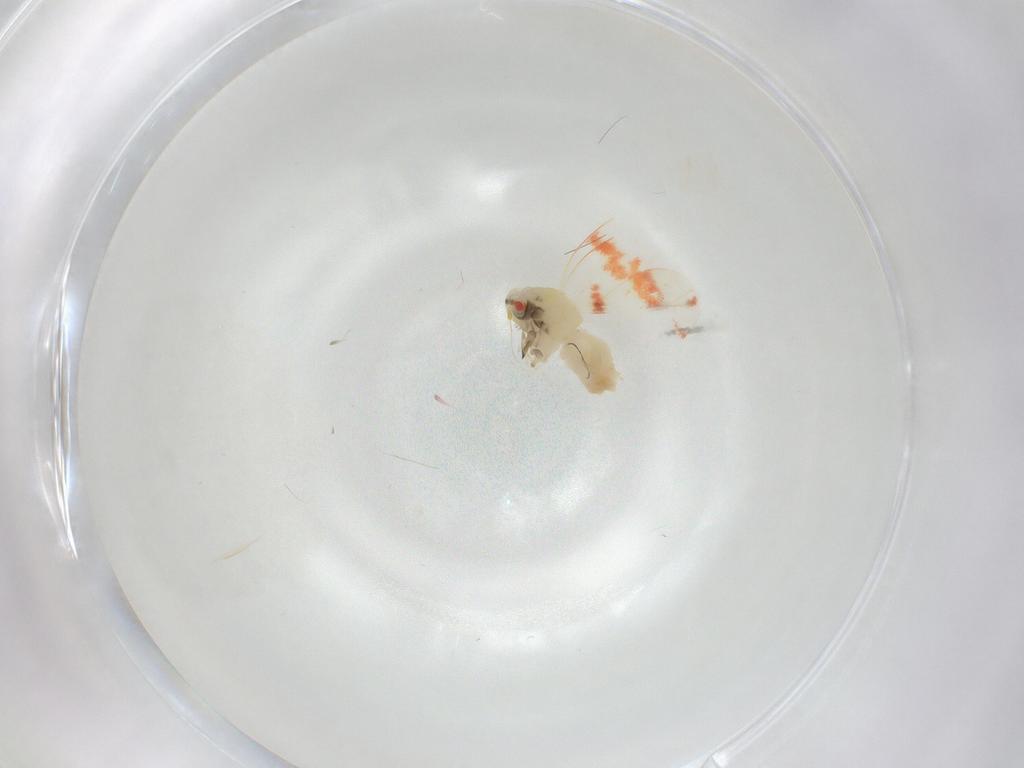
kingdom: Animalia
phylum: Arthropoda
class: Insecta
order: Hemiptera
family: Aleyrodidae
